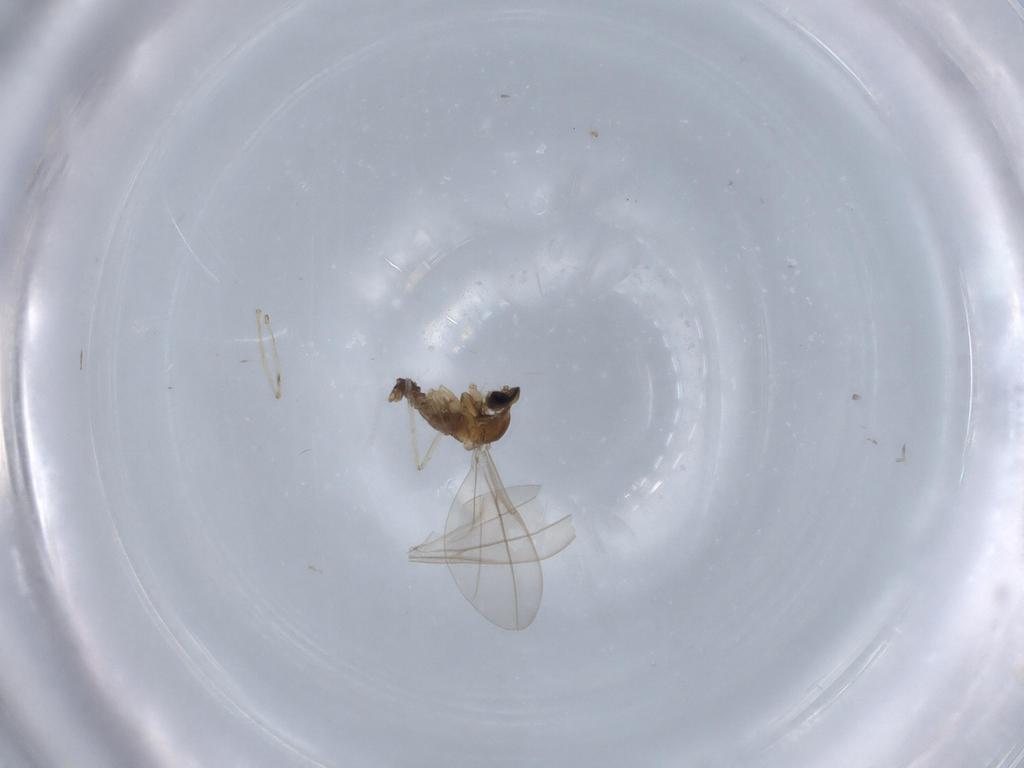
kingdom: Animalia
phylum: Arthropoda
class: Insecta
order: Diptera
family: Cecidomyiidae
